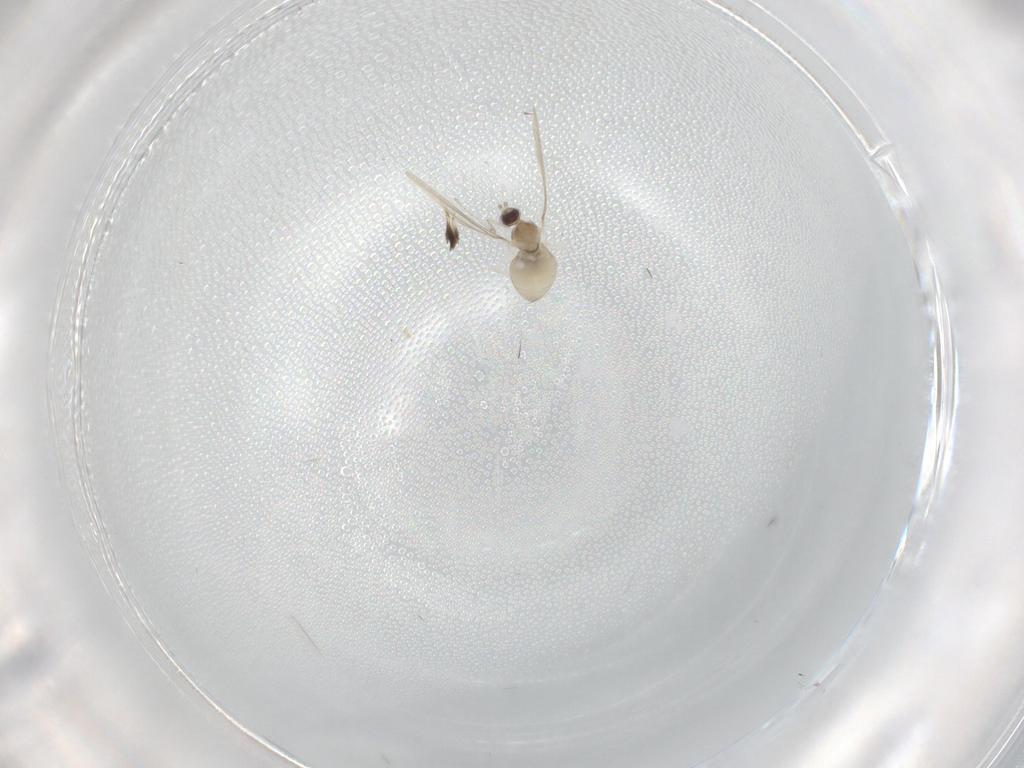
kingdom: Animalia
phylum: Arthropoda
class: Insecta
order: Diptera
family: Cecidomyiidae
